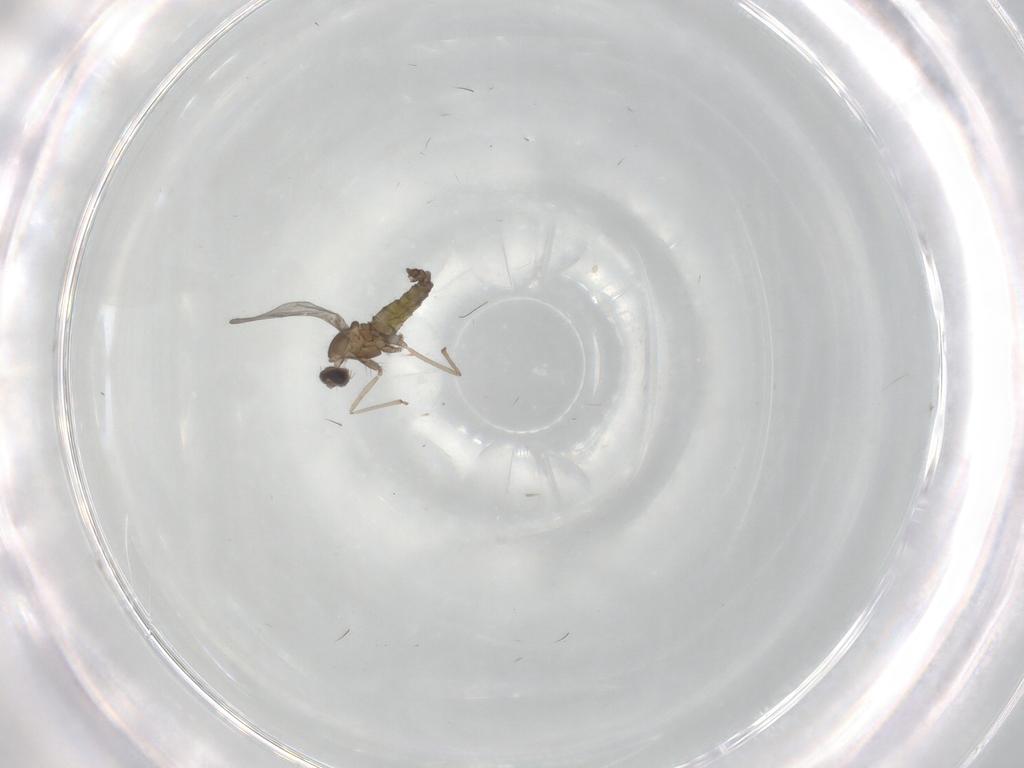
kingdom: Animalia
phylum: Arthropoda
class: Insecta
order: Diptera
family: Cecidomyiidae
